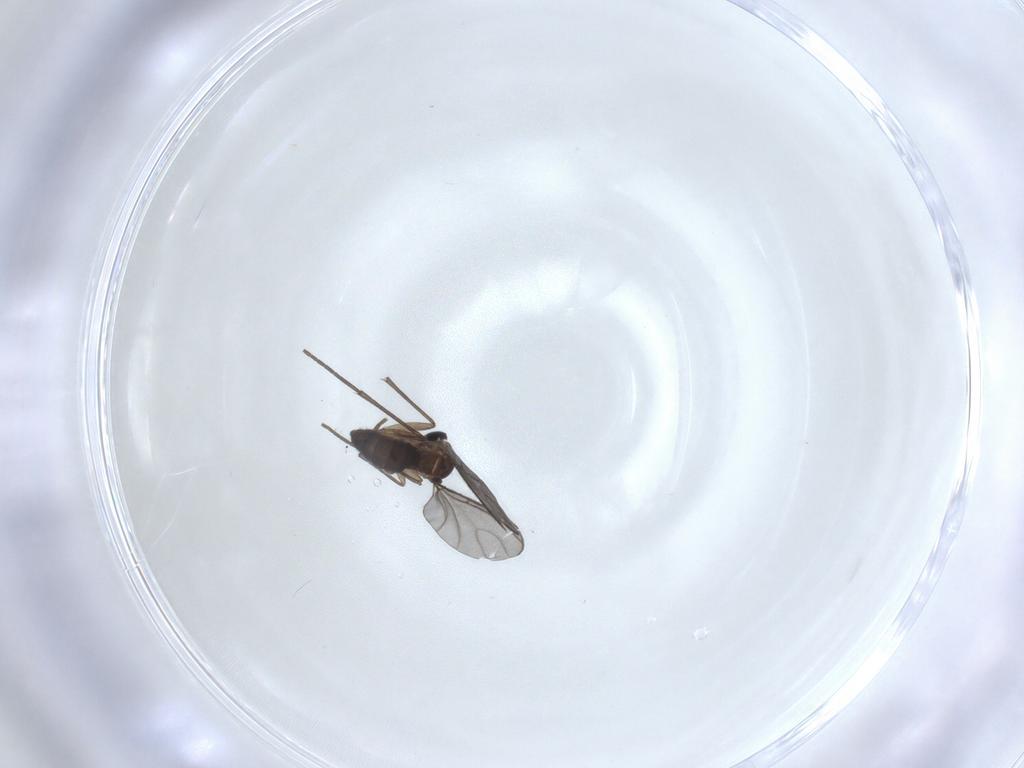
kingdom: Animalia
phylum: Arthropoda
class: Insecta
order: Diptera
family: Sciaridae
